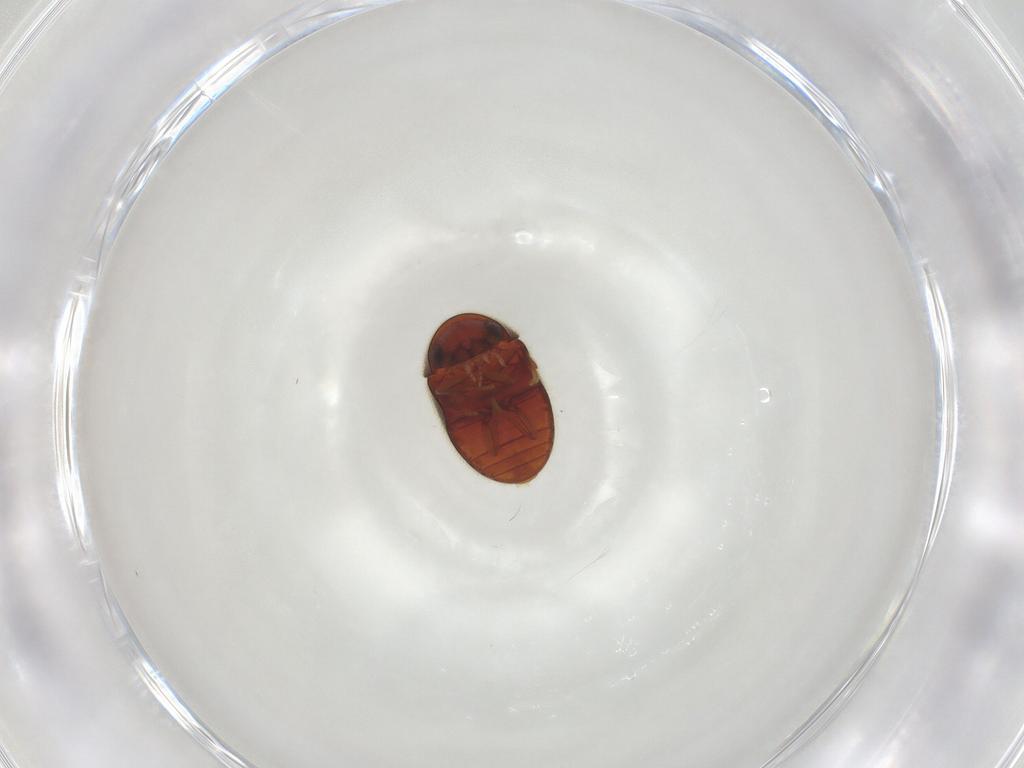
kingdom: Animalia
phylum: Arthropoda
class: Insecta
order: Coleoptera
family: Ptinidae
